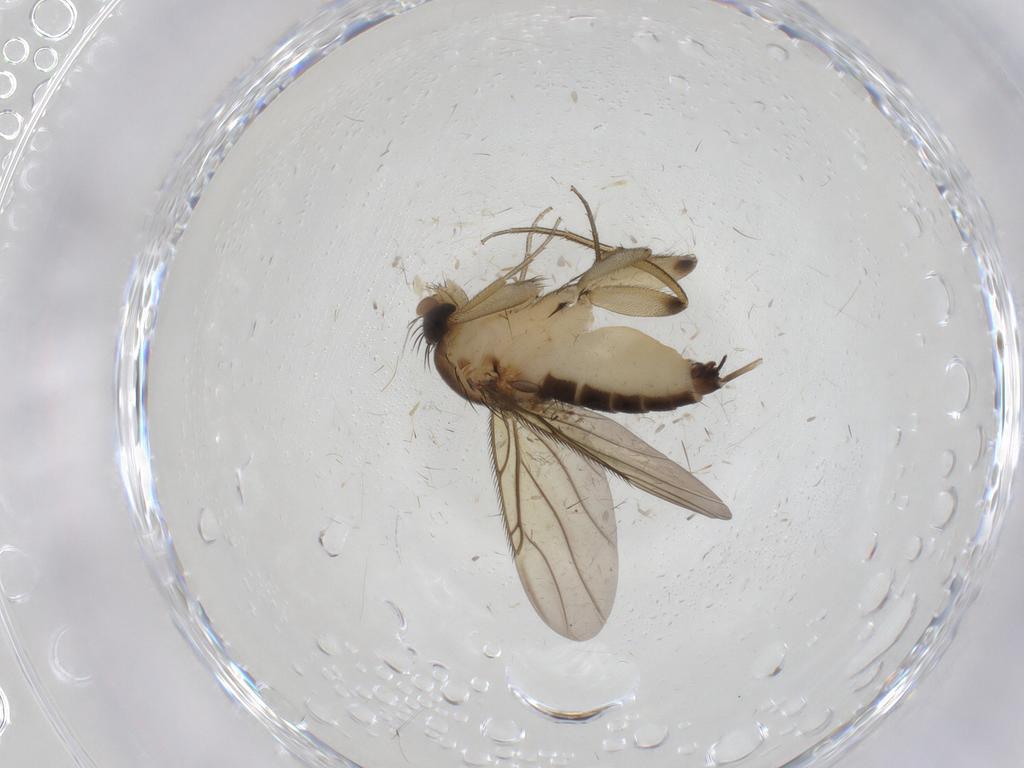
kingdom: Animalia
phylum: Arthropoda
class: Insecta
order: Diptera
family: Phoridae
